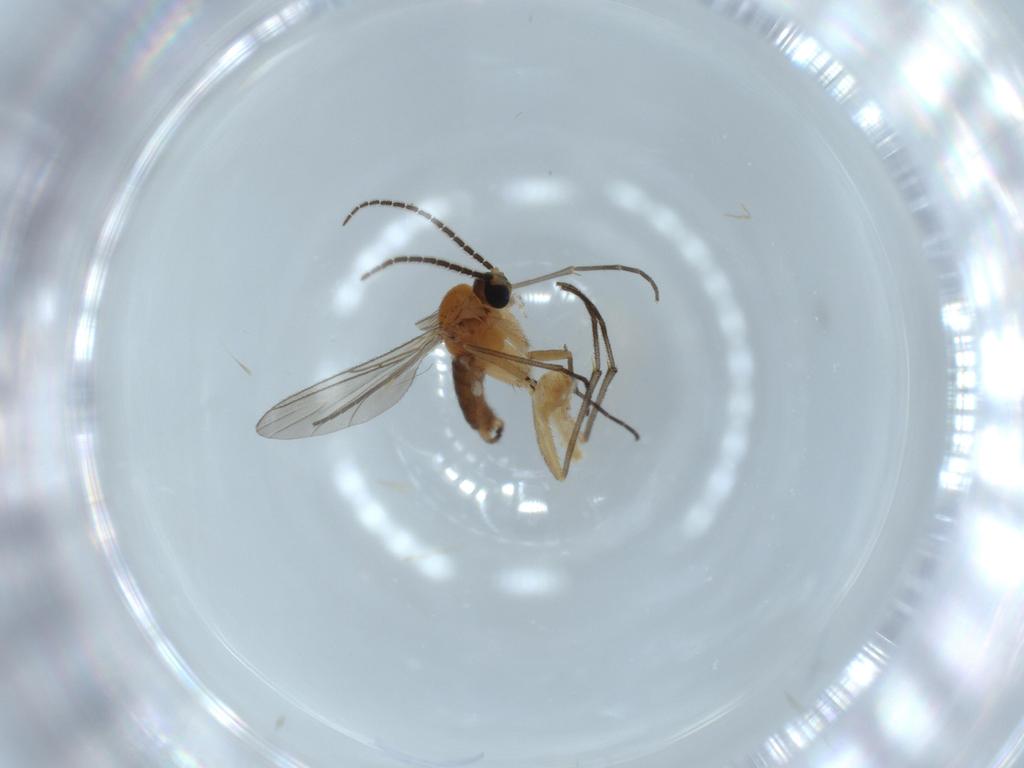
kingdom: Animalia
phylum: Arthropoda
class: Insecta
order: Diptera
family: Sciaridae
